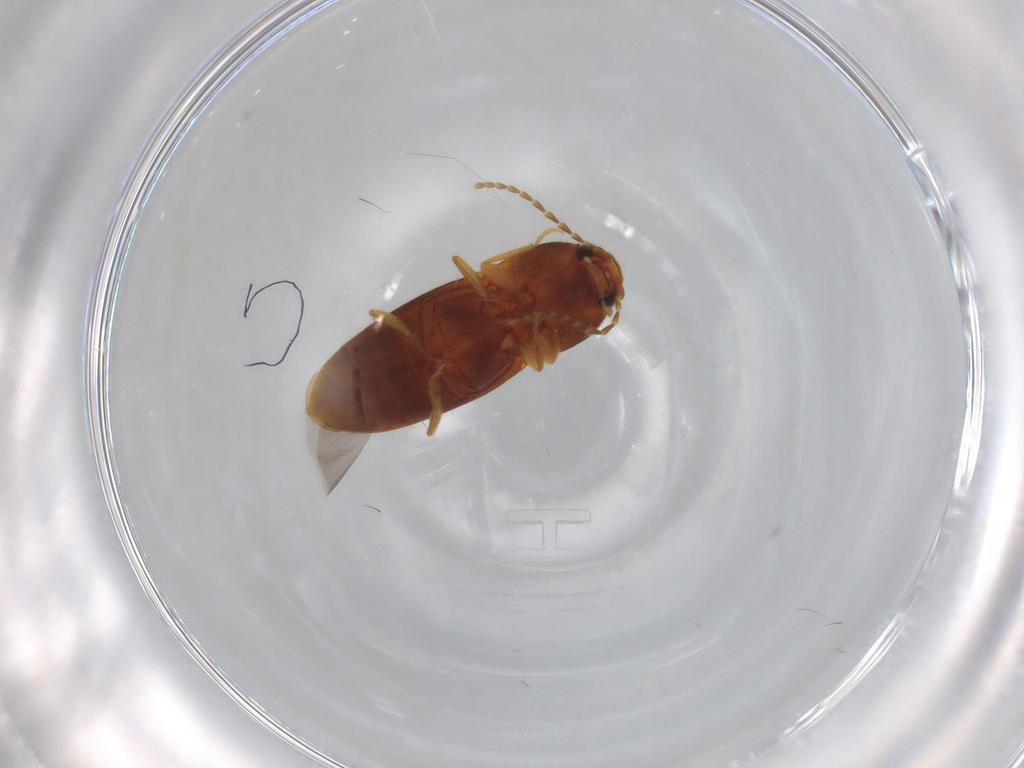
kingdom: Animalia
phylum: Arthropoda
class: Insecta
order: Coleoptera
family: Elateridae
